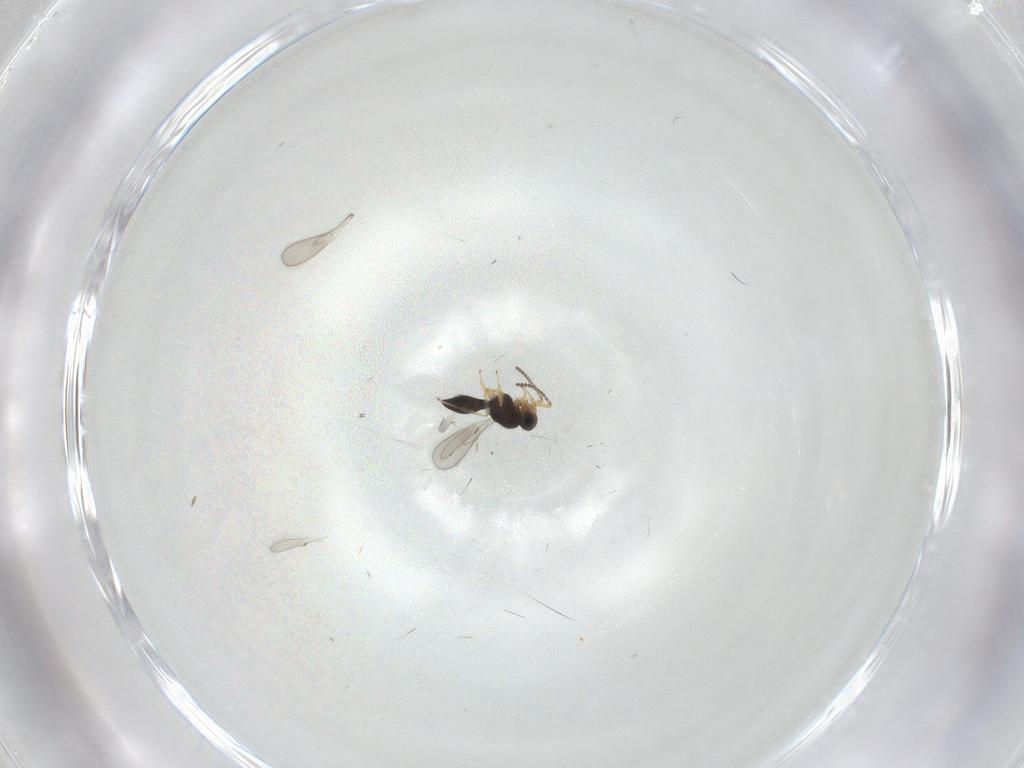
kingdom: Animalia
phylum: Arthropoda
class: Insecta
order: Hymenoptera
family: Scelionidae
